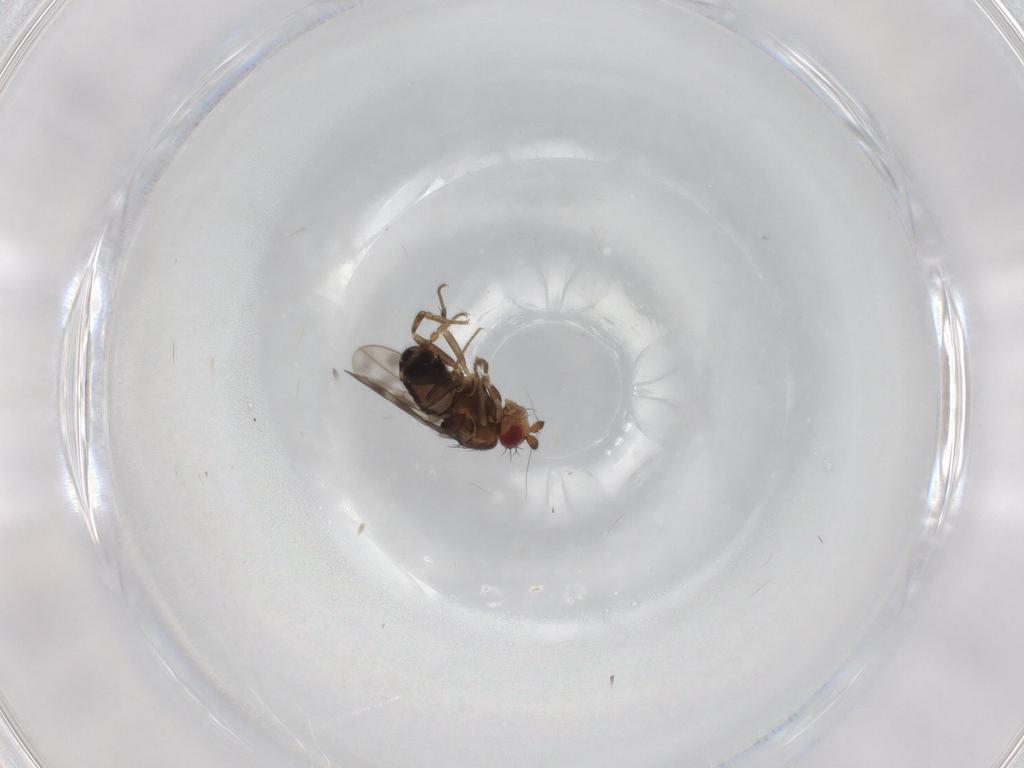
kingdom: Animalia
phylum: Arthropoda
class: Insecta
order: Diptera
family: Sphaeroceridae
